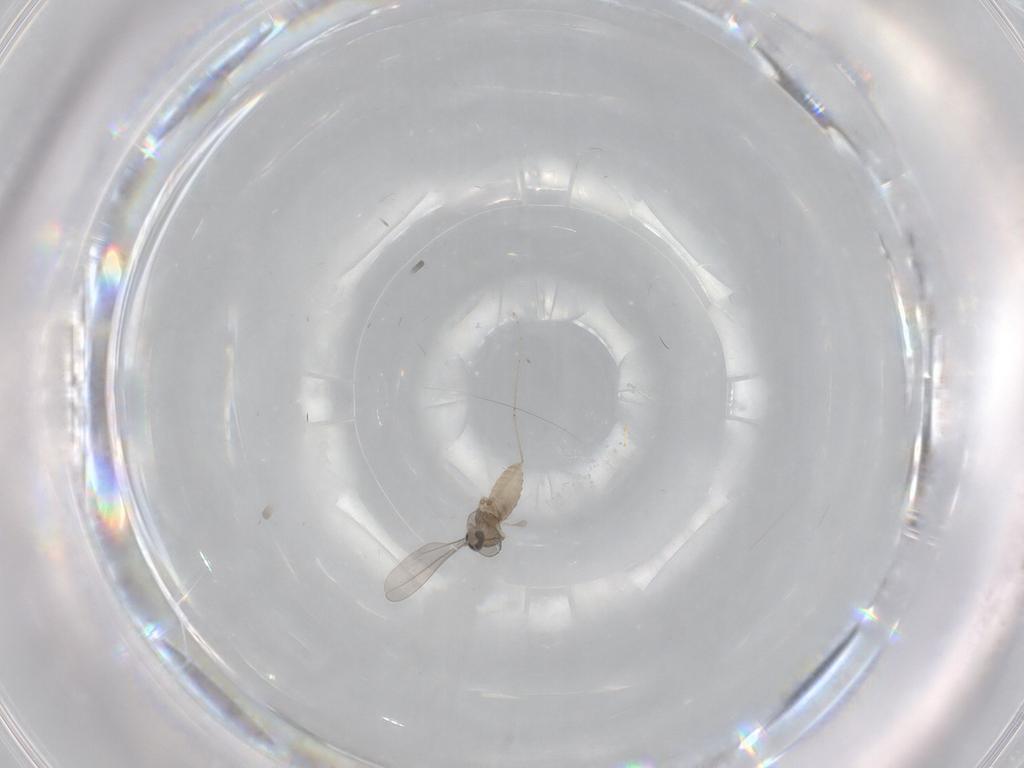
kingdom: Animalia
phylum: Arthropoda
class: Insecta
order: Diptera
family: Cecidomyiidae
